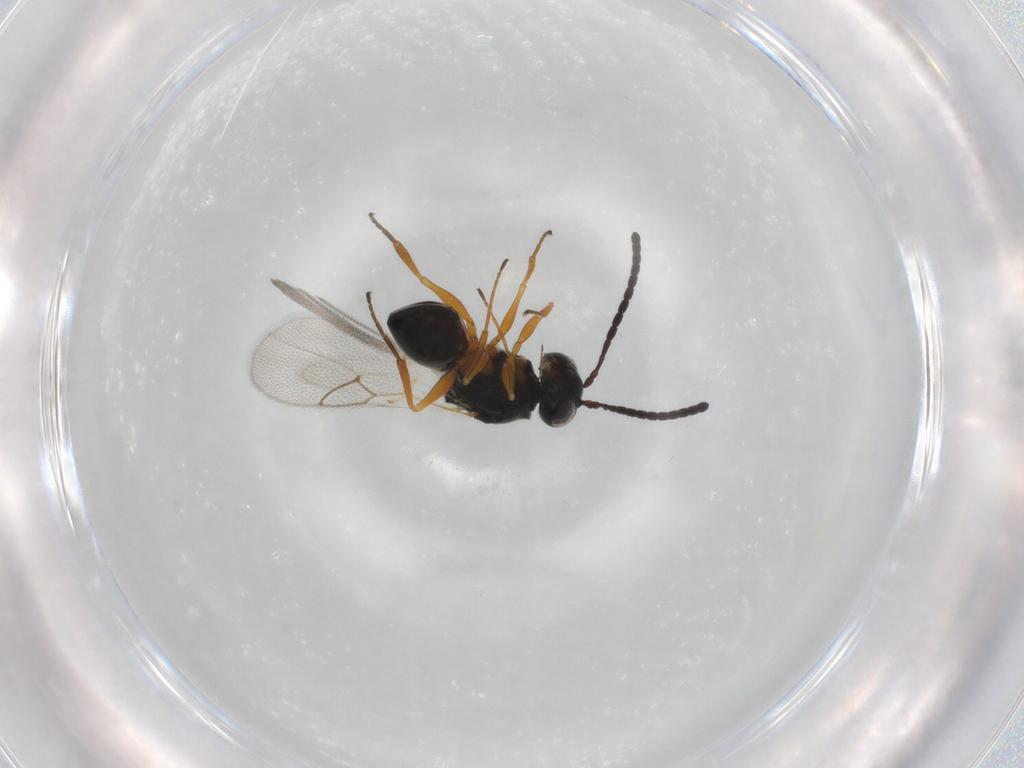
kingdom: Animalia
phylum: Arthropoda
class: Insecta
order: Hymenoptera
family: Figitidae
